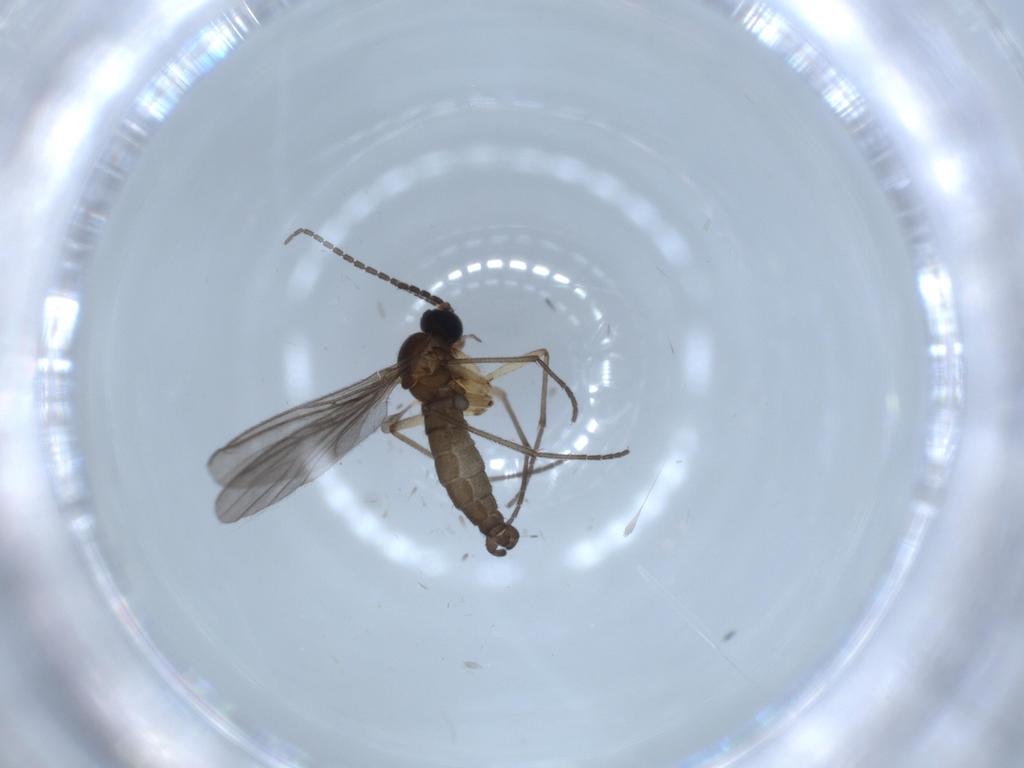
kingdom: Animalia
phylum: Arthropoda
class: Insecta
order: Diptera
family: Sciaridae
